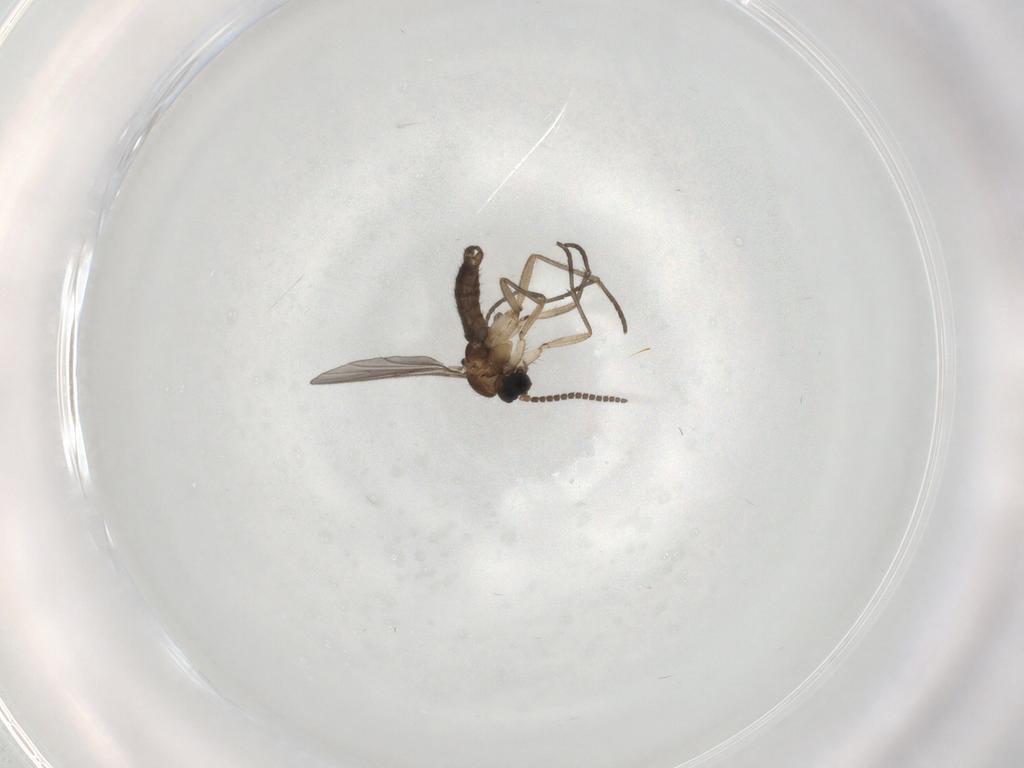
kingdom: Animalia
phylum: Arthropoda
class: Insecta
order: Diptera
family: Sciaridae
